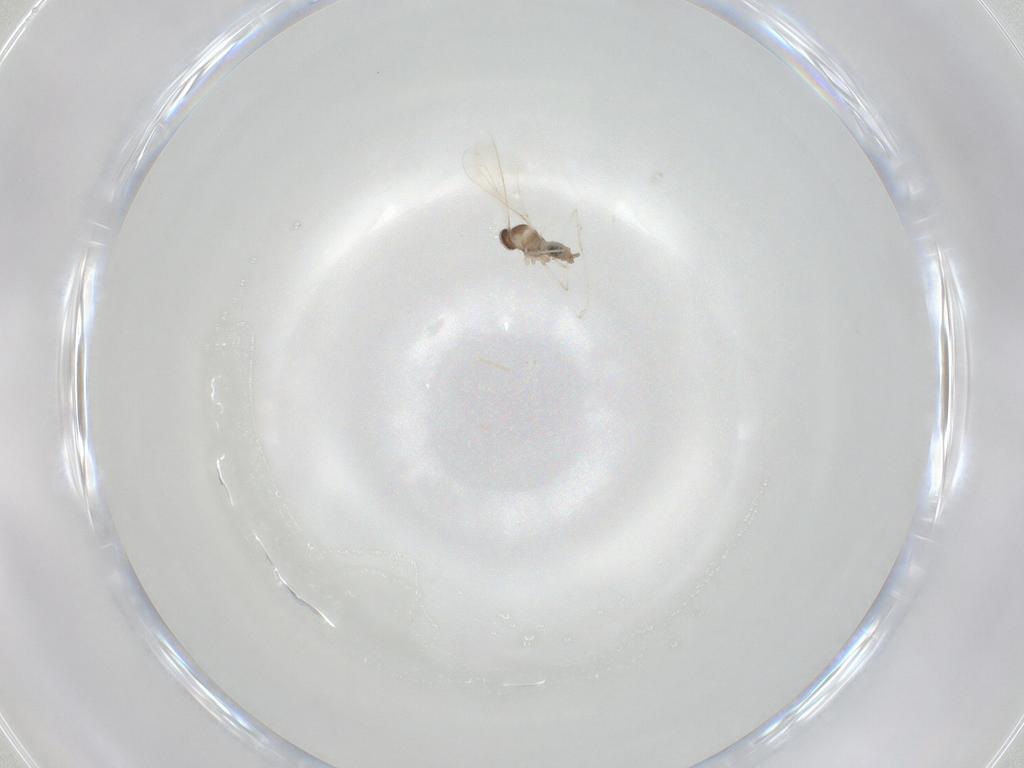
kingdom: Animalia
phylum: Arthropoda
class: Insecta
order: Diptera
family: Cecidomyiidae
